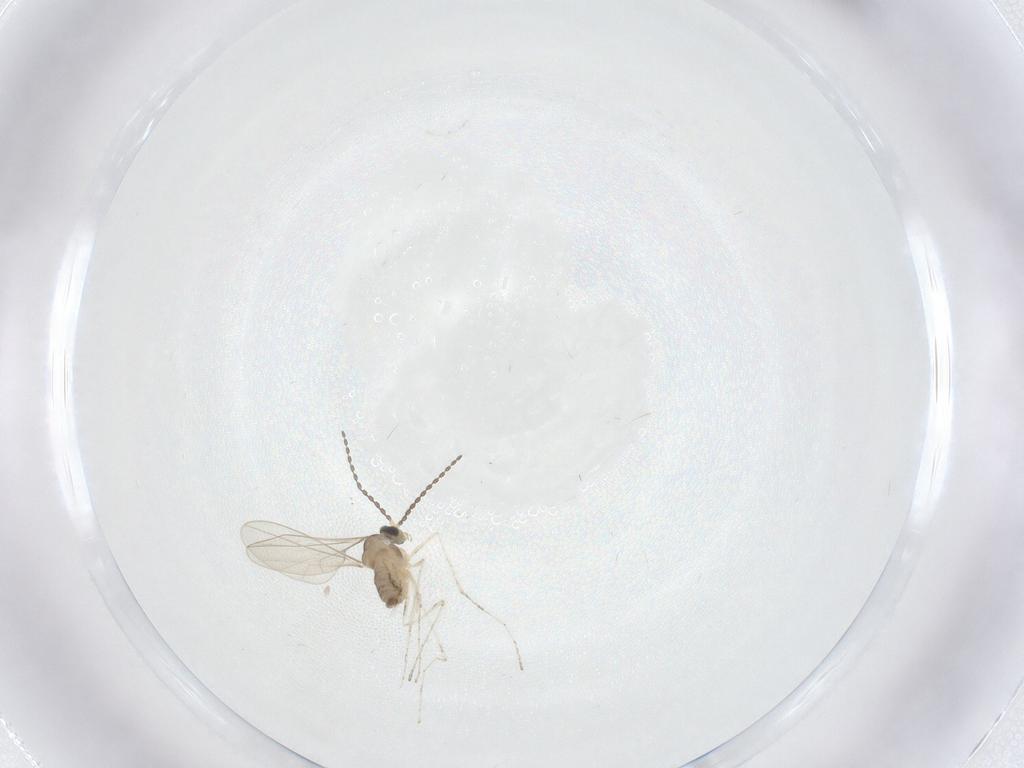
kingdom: Animalia
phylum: Arthropoda
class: Insecta
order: Diptera
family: Cecidomyiidae
